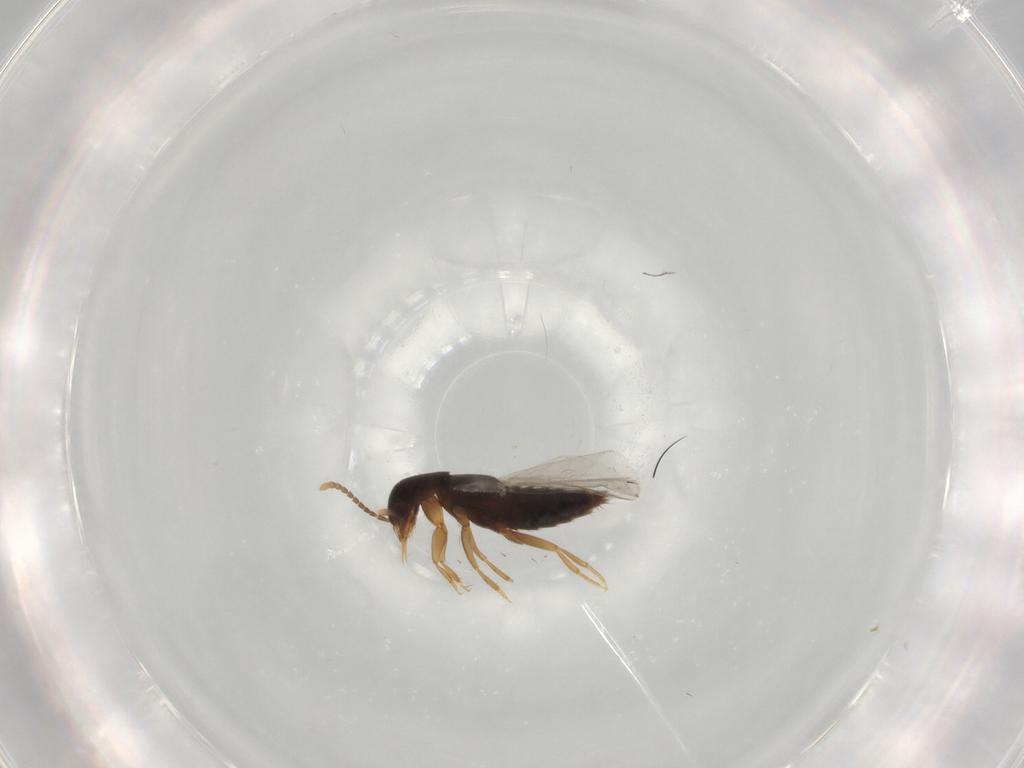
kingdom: Animalia
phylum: Arthropoda
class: Insecta
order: Coleoptera
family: Staphylinidae
